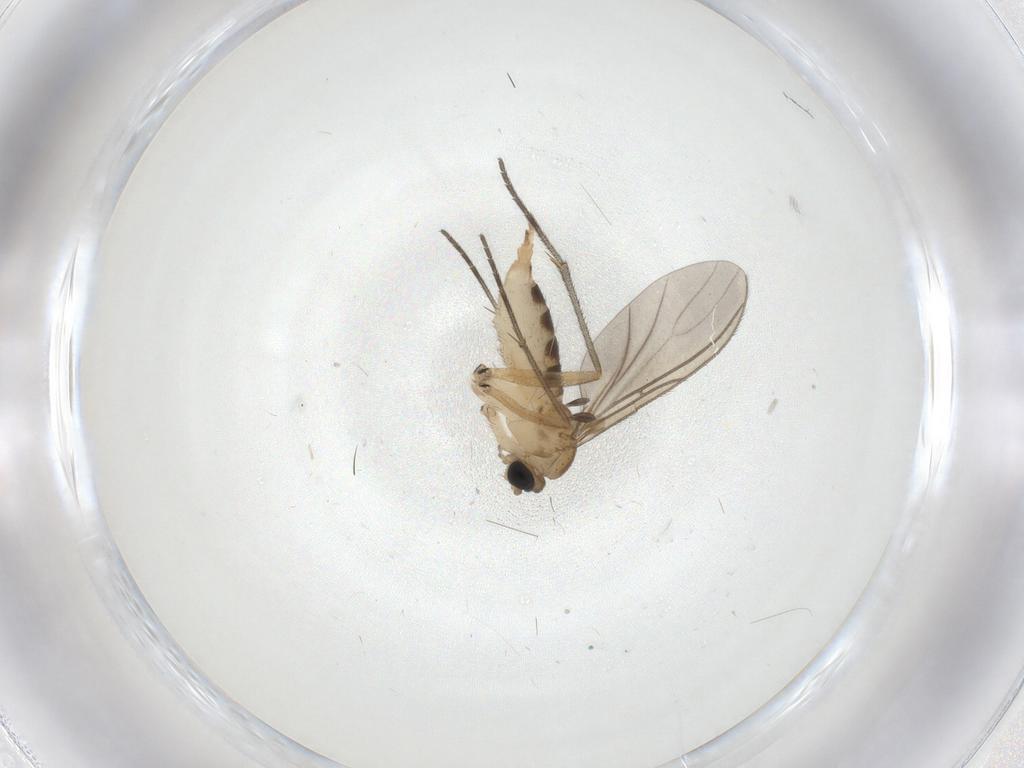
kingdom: Animalia
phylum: Arthropoda
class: Insecta
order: Diptera
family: Sciaridae
